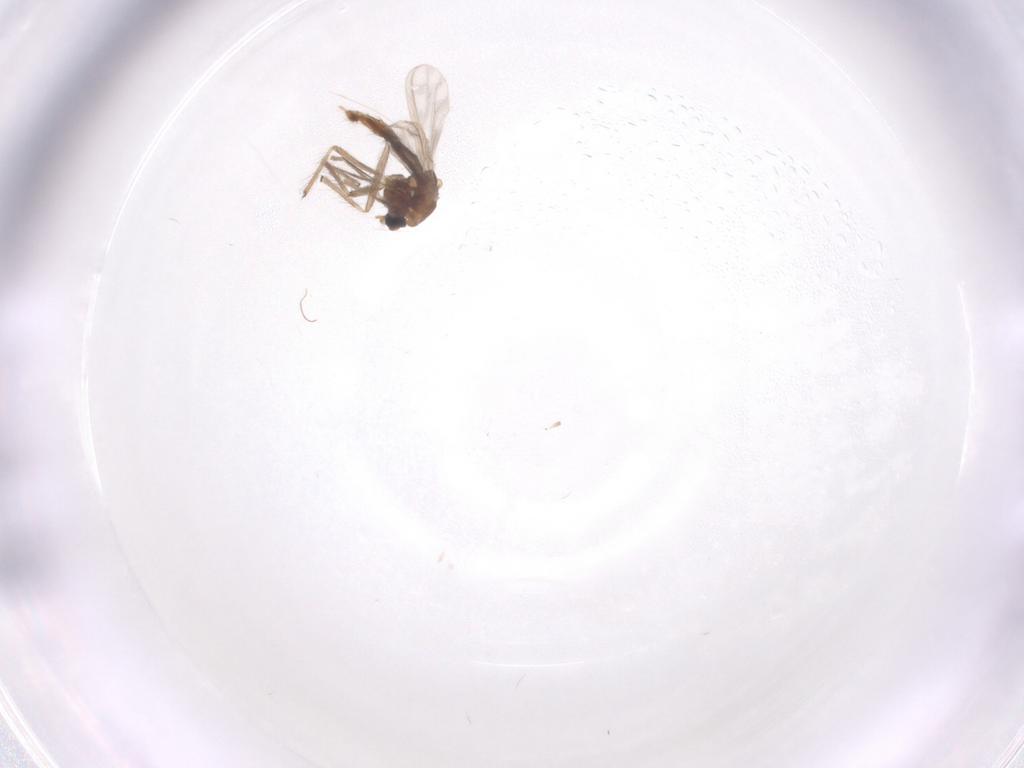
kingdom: Animalia
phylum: Arthropoda
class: Insecta
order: Diptera
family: Chironomidae
